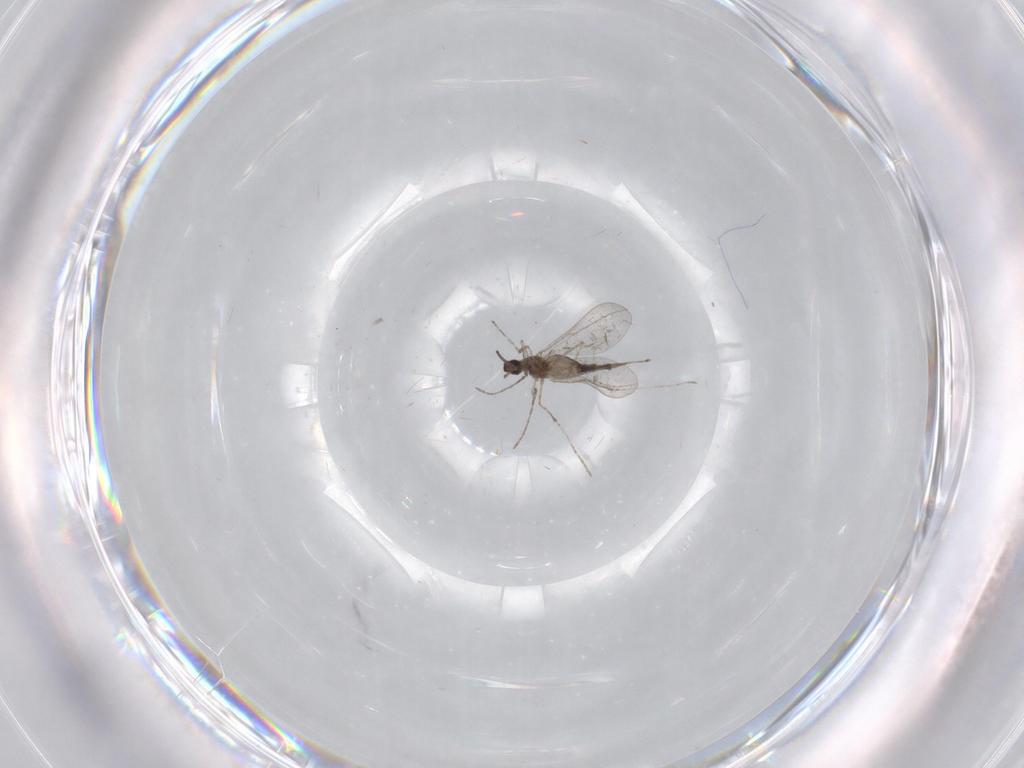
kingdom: Animalia
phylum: Arthropoda
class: Insecta
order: Diptera
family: Cecidomyiidae
